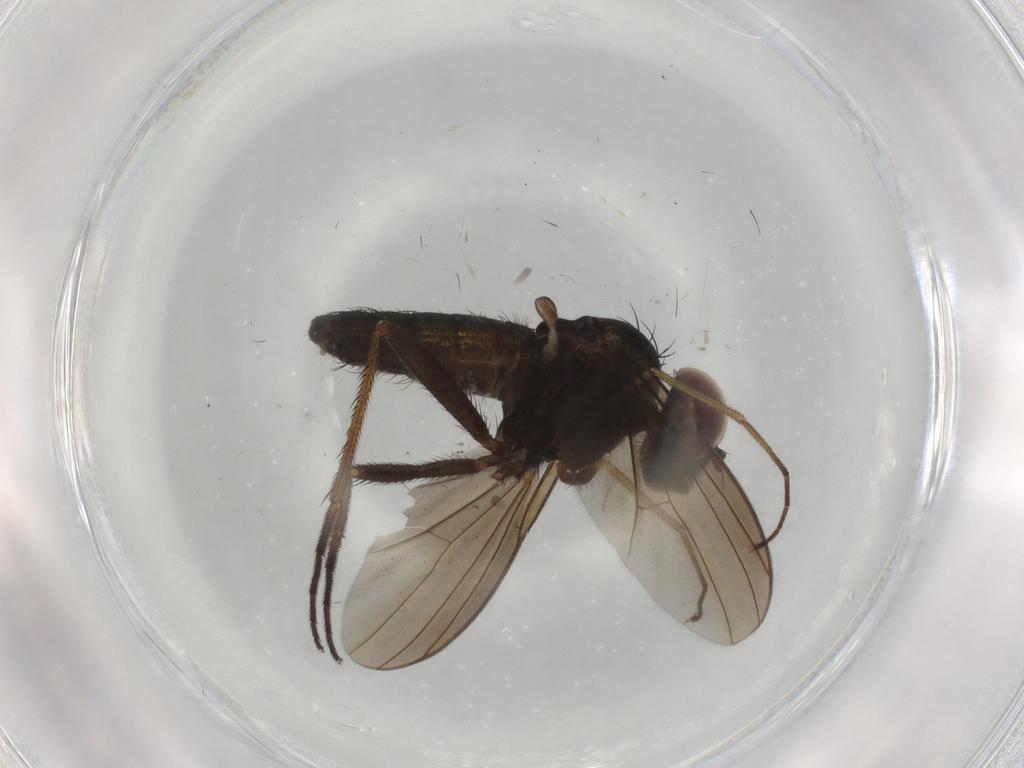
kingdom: Animalia
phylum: Arthropoda
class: Insecta
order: Diptera
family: Dolichopodidae
